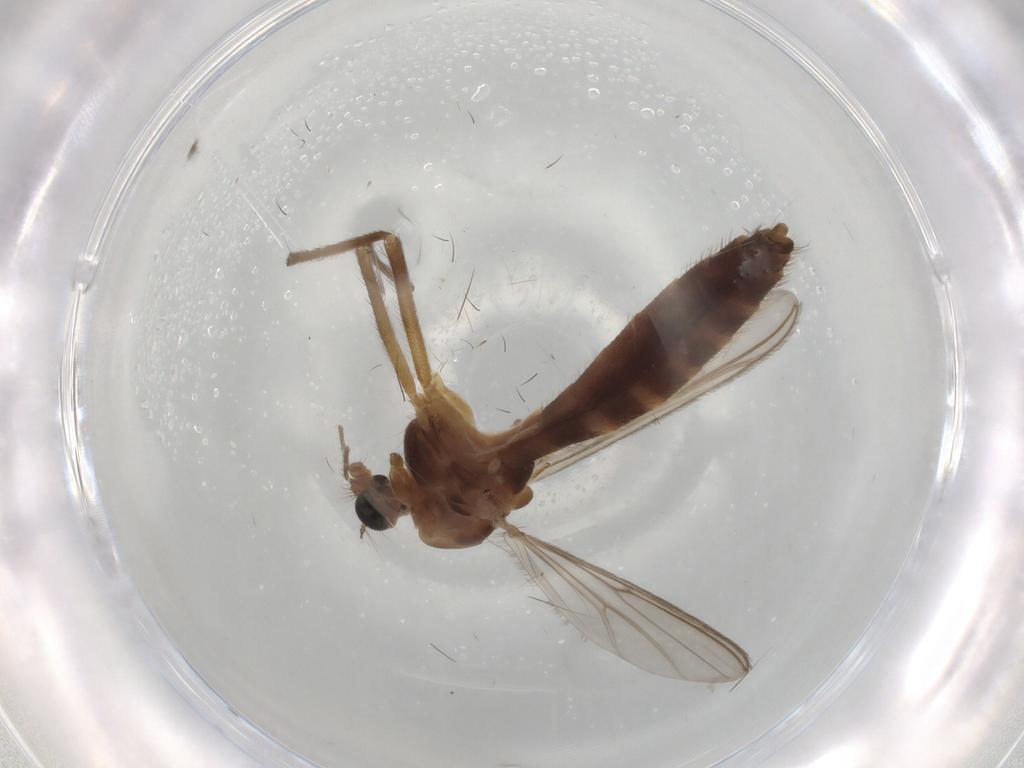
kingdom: Animalia
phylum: Arthropoda
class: Insecta
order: Diptera
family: Chironomidae
